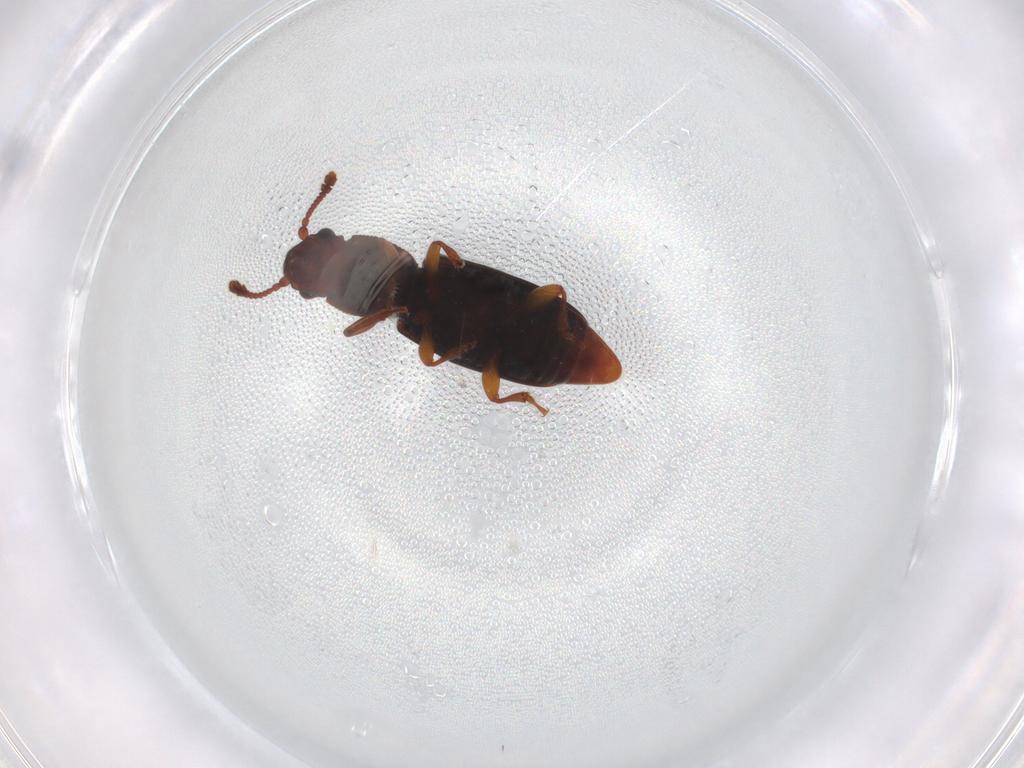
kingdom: Animalia
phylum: Arthropoda
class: Insecta
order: Coleoptera
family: Monotomidae
